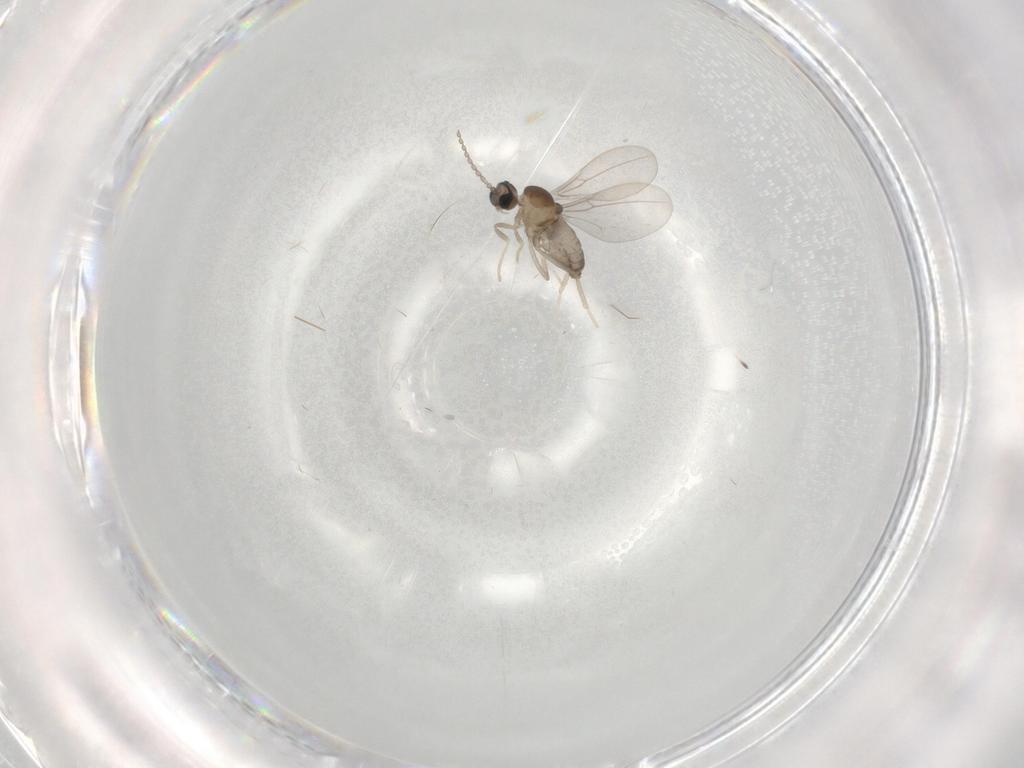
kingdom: Animalia
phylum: Arthropoda
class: Insecta
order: Diptera
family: Cecidomyiidae
